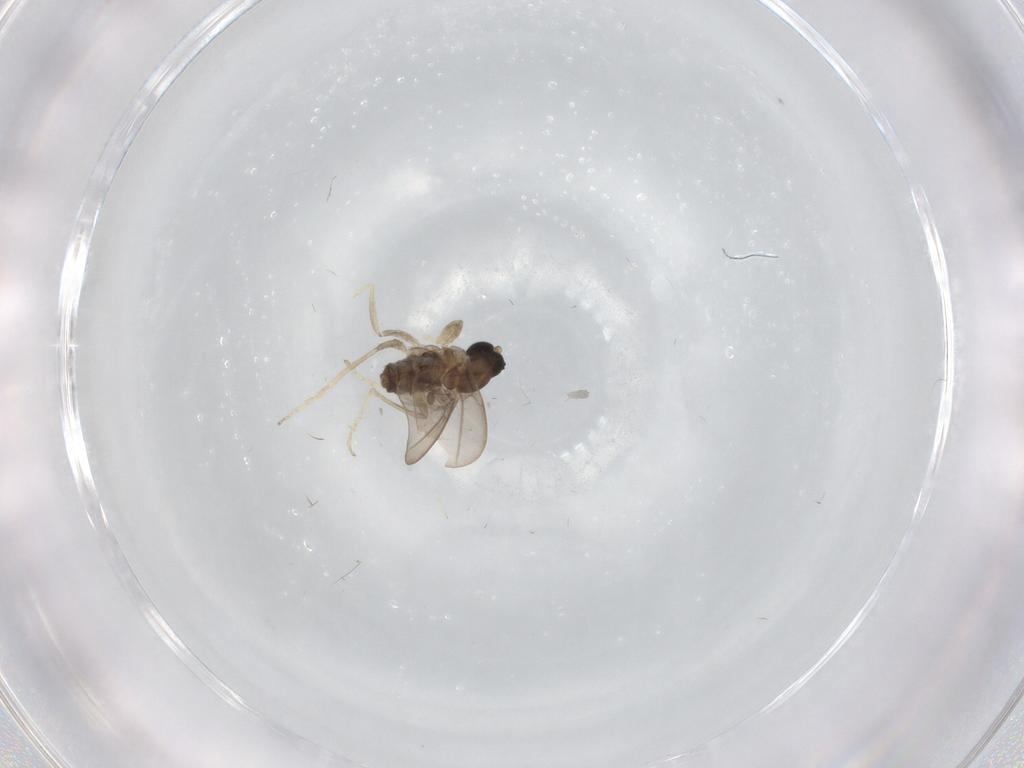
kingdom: Animalia
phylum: Arthropoda
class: Insecta
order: Diptera
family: Cecidomyiidae
